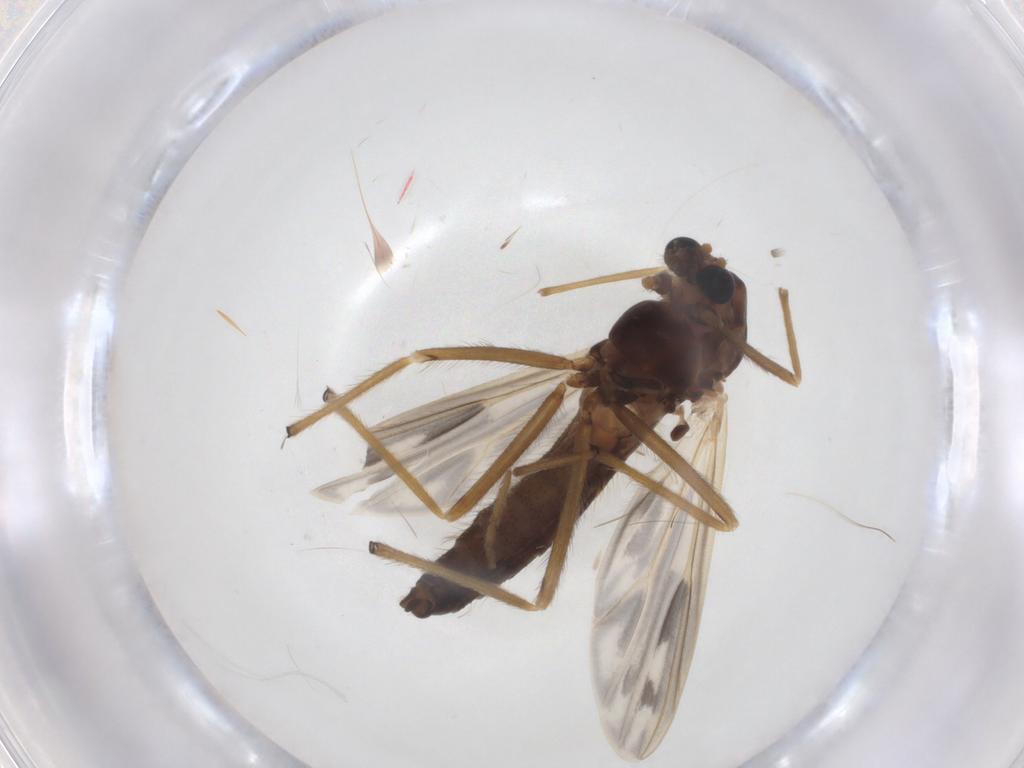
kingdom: Animalia
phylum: Arthropoda
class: Insecta
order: Diptera
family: Chironomidae
